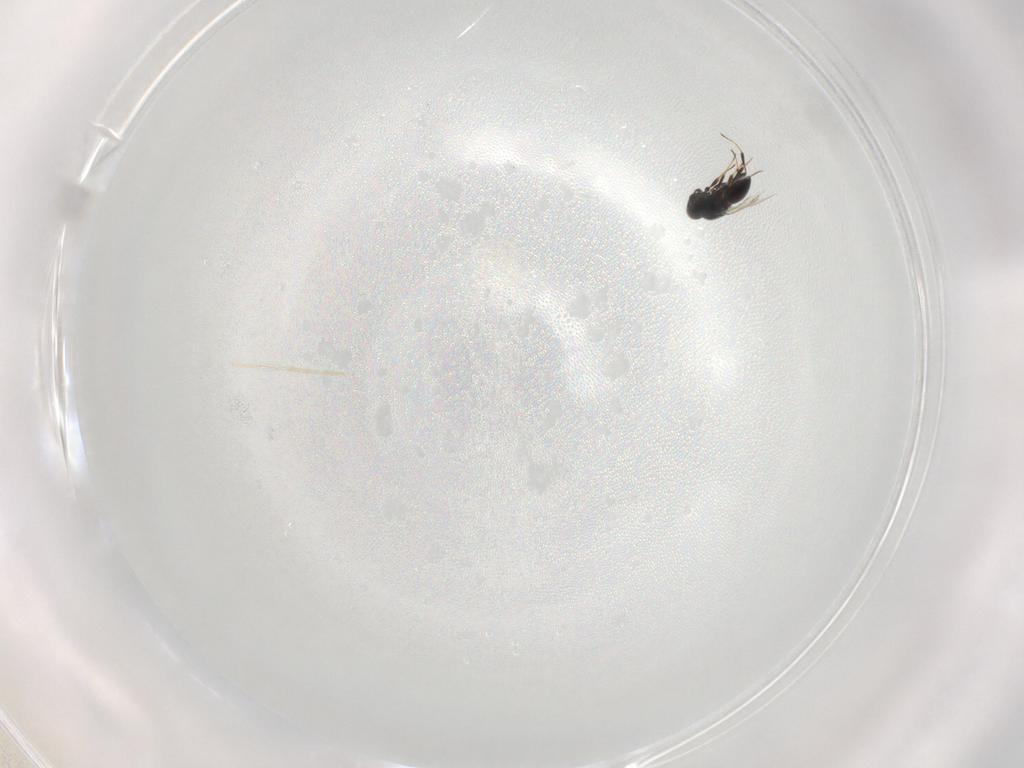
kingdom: Animalia
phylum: Arthropoda
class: Insecta
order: Hymenoptera
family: Platygastridae
